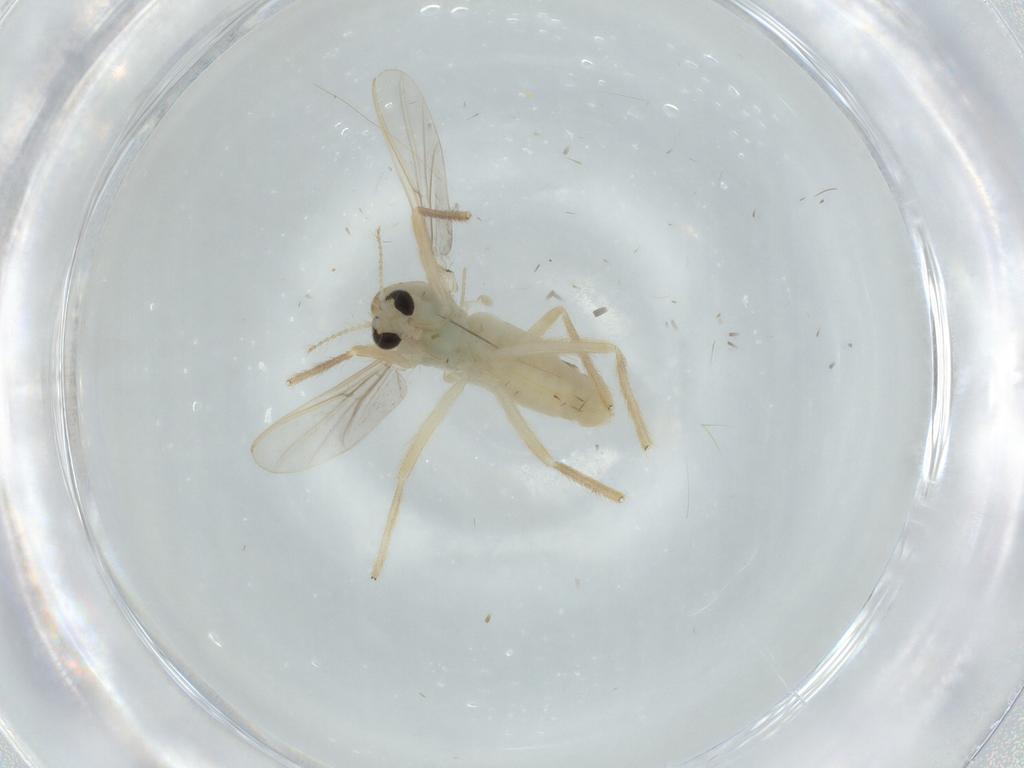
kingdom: Animalia
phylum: Arthropoda
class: Insecta
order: Diptera
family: Chironomidae
